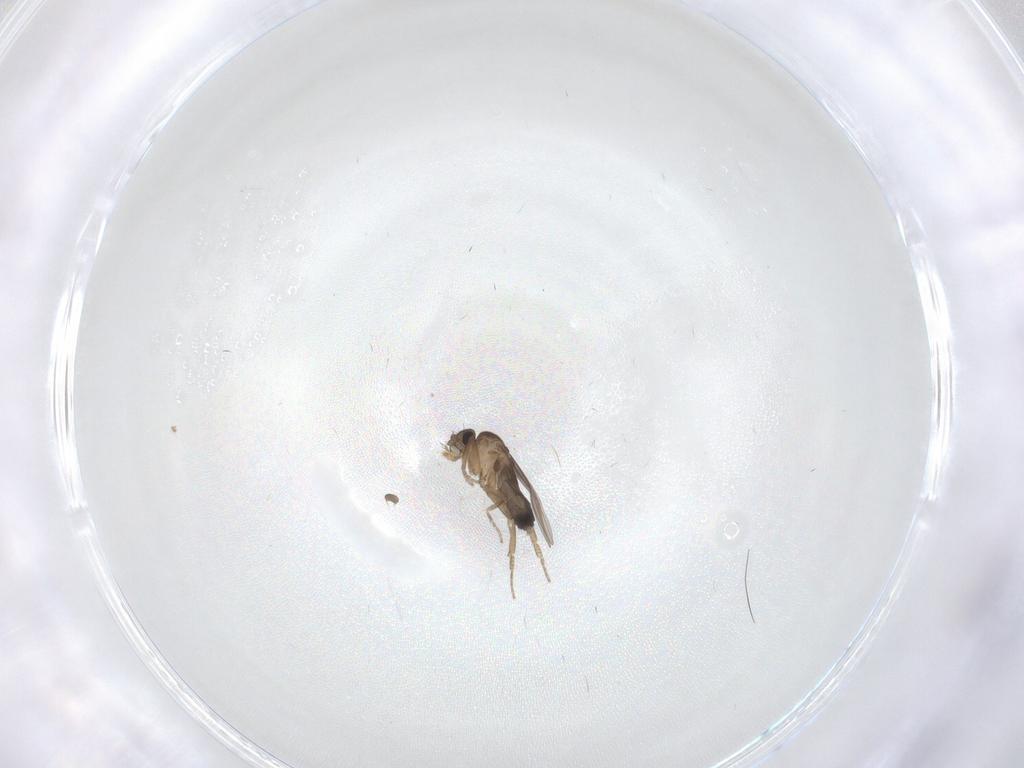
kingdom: Animalia
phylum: Arthropoda
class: Insecta
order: Diptera
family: Phoridae
